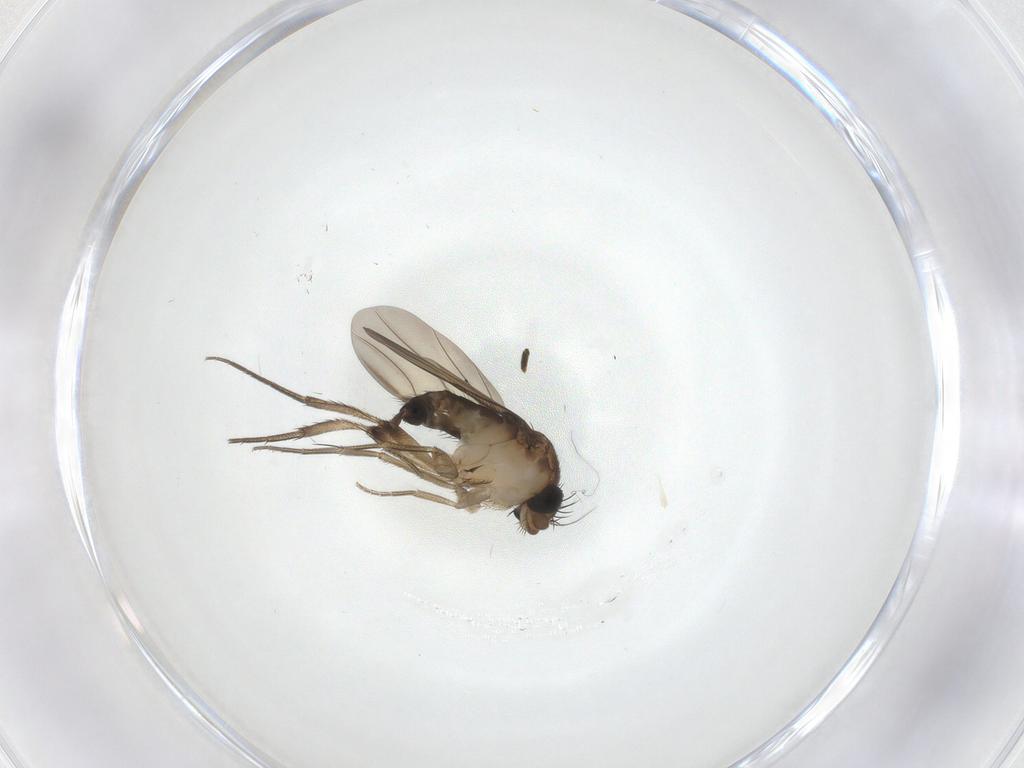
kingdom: Animalia
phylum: Arthropoda
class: Insecta
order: Diptera
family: Phoridae
